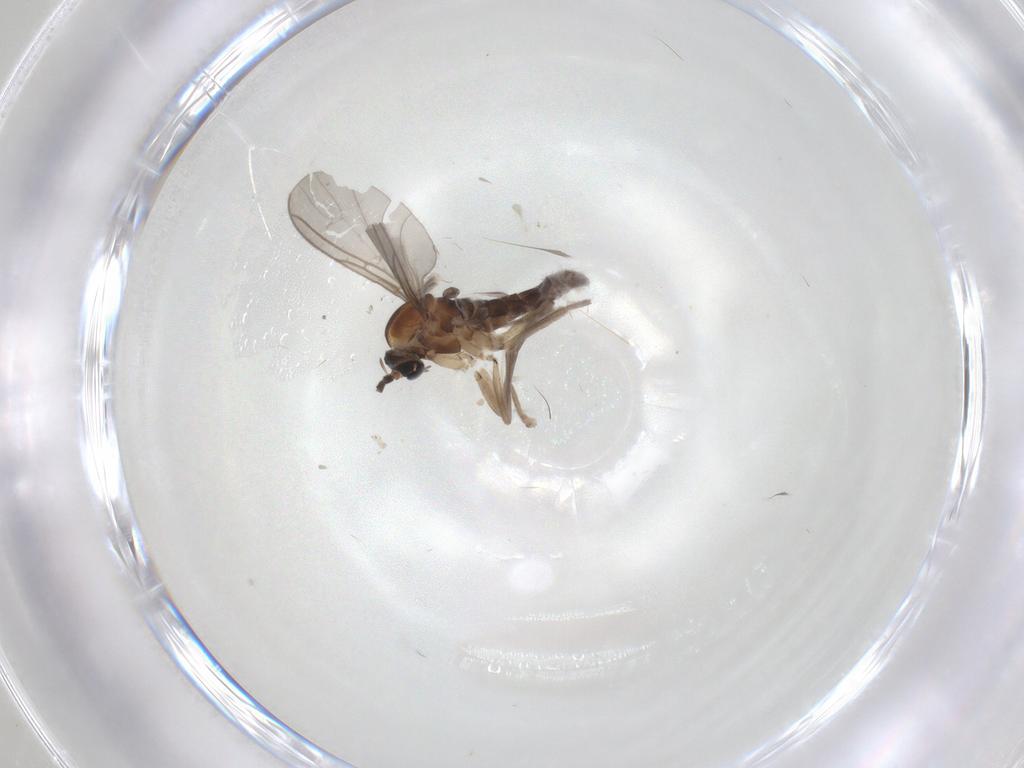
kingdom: Animalia
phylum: Arthropoda
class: Insecta
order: Diptera
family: Sciaridae
